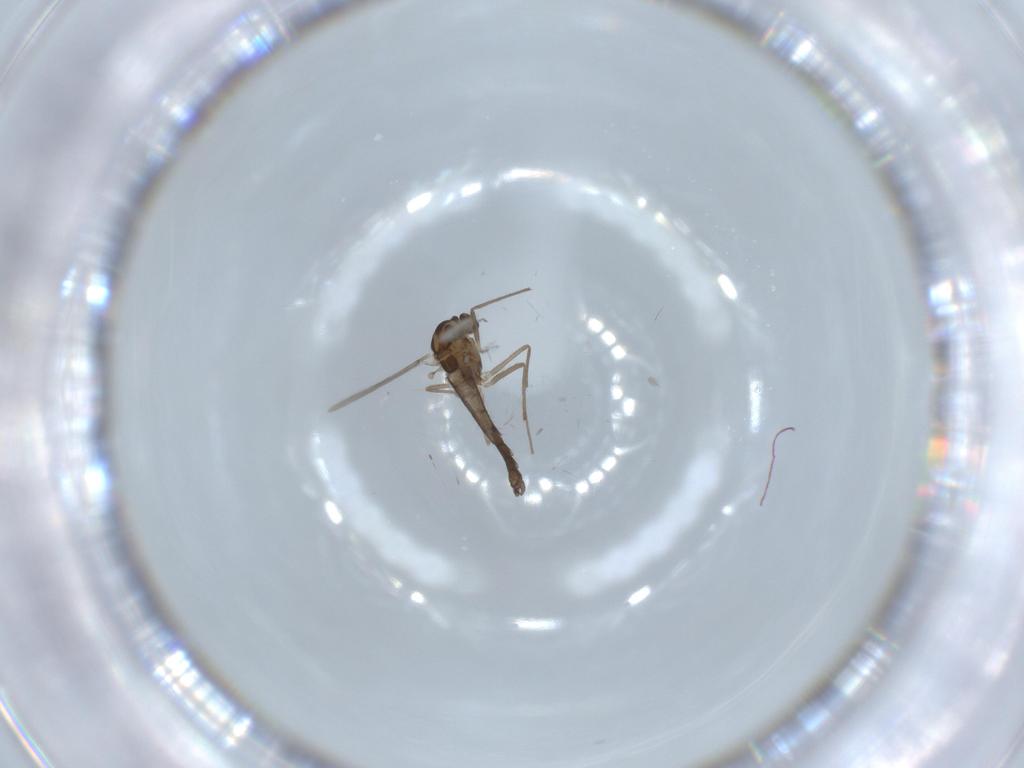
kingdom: Animalia
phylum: Arthropoda
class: Insecta
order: Diptera
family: Chironomidae
